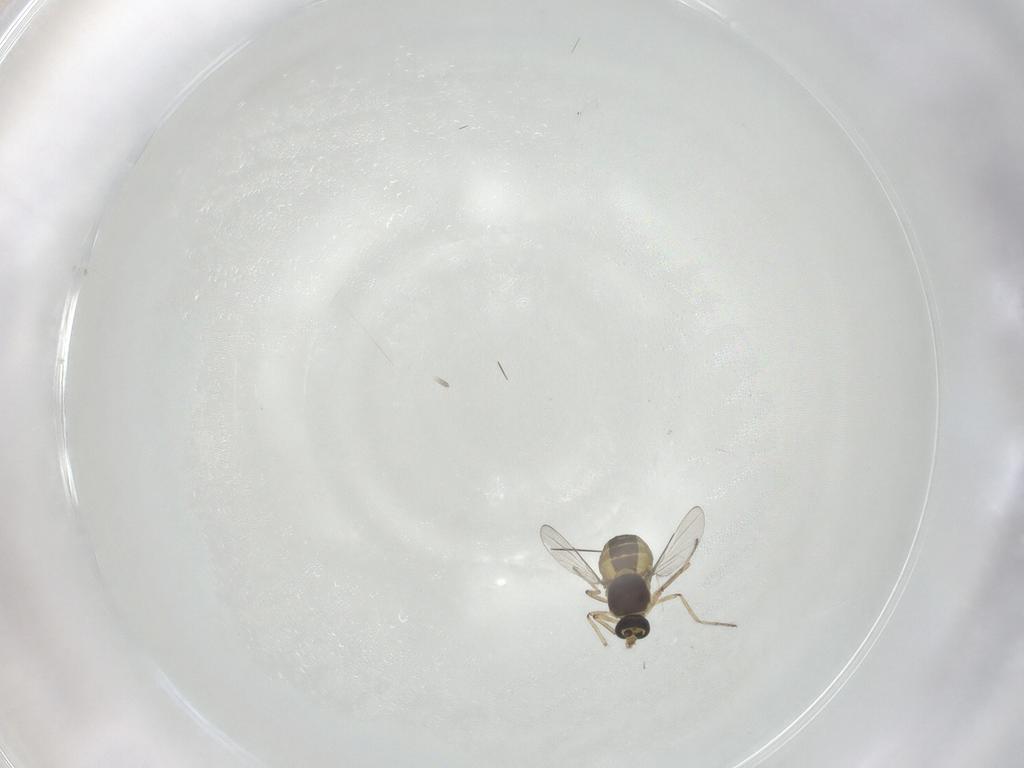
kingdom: Animalia
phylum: Arthropoda
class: Insecta
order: Diptera
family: Ceratopogonidae
